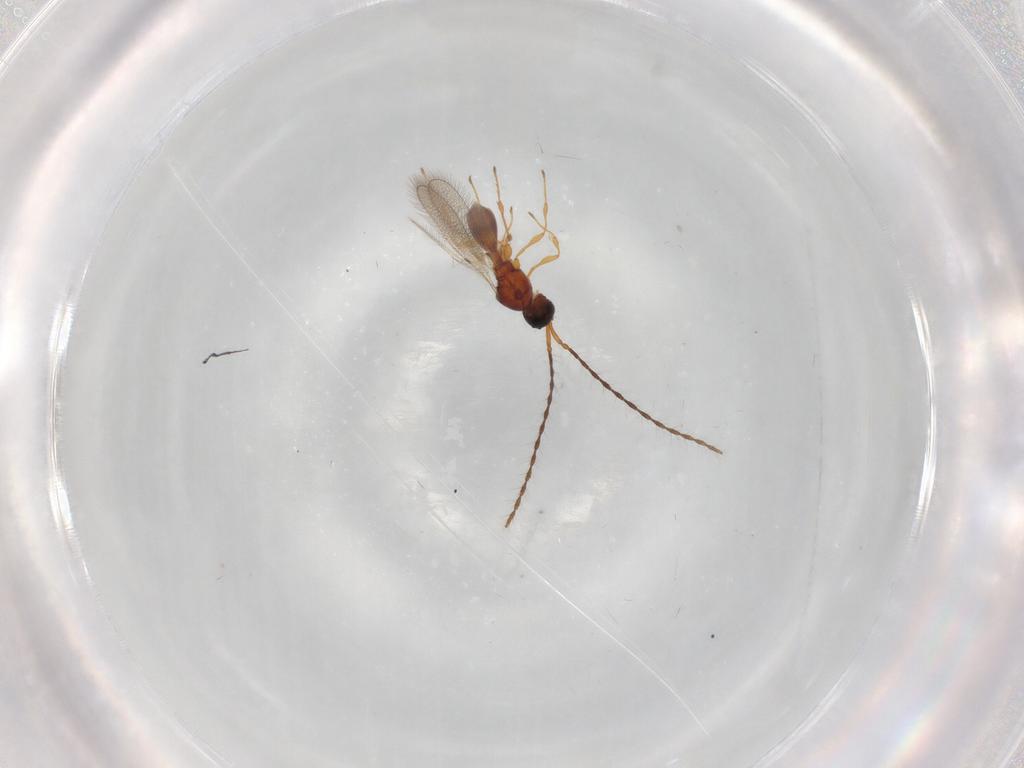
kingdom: Animalia
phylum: Arthropoda
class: Insecta
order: Hymenoptera
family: Diapriidae
